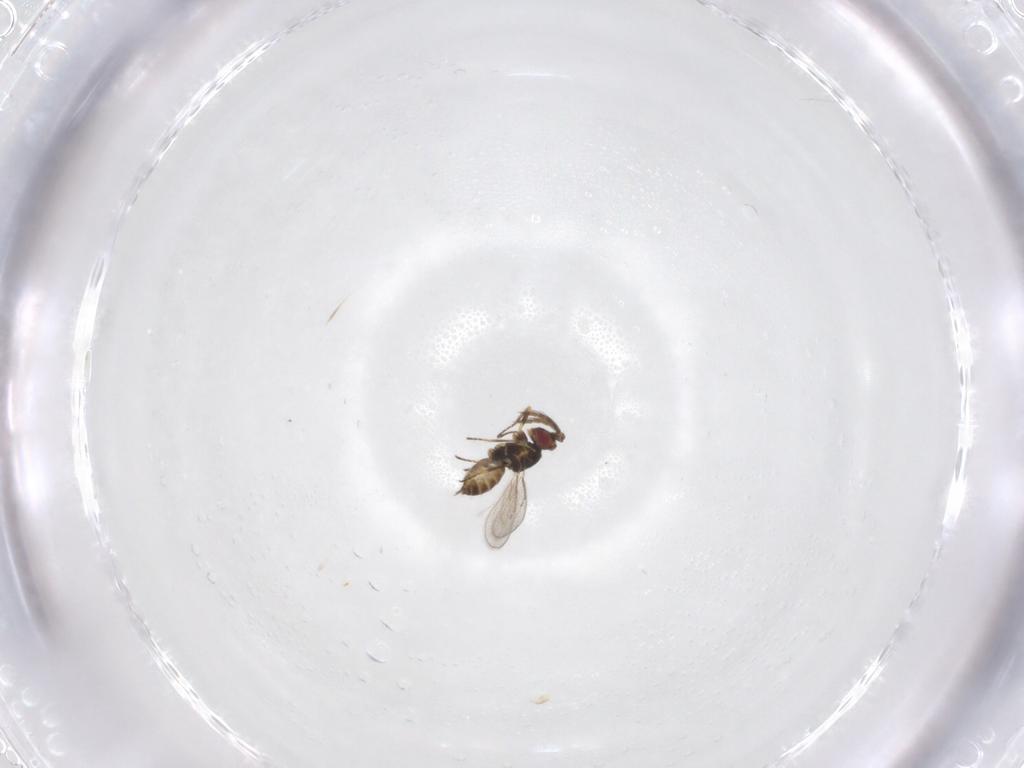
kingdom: Animalia
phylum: Arthropoda
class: Insecta
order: Hymenoptera
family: Eulophidae
